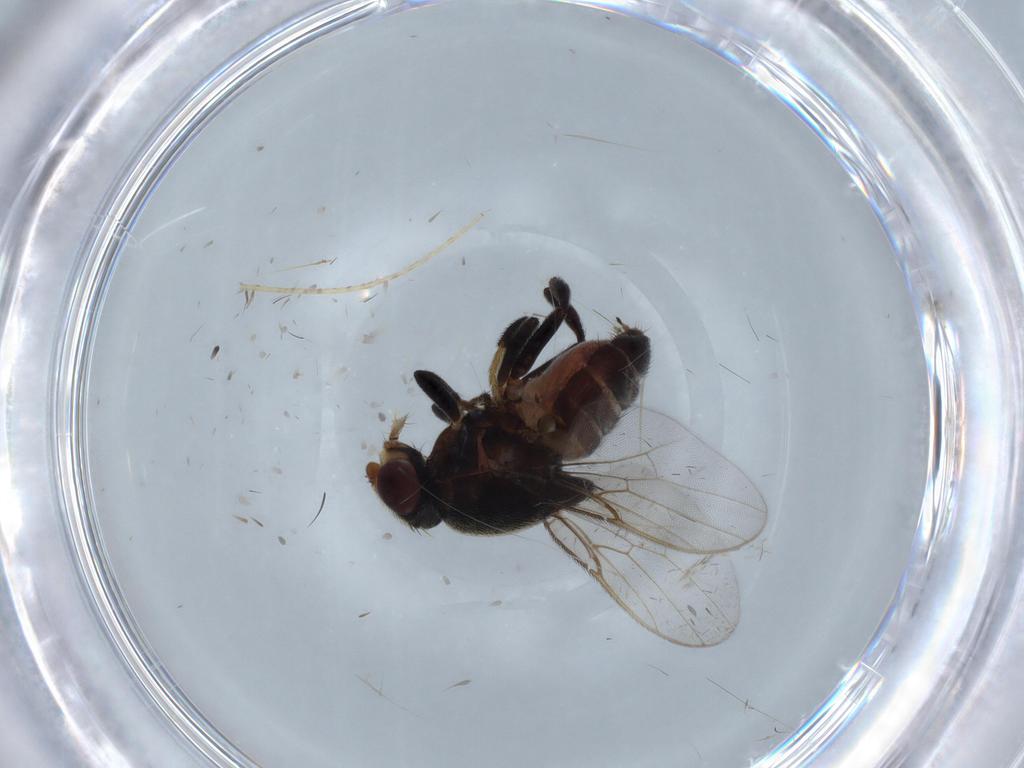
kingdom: Animalia
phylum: Arthropoda
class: Insecta
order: Diptera
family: Chloropidae
